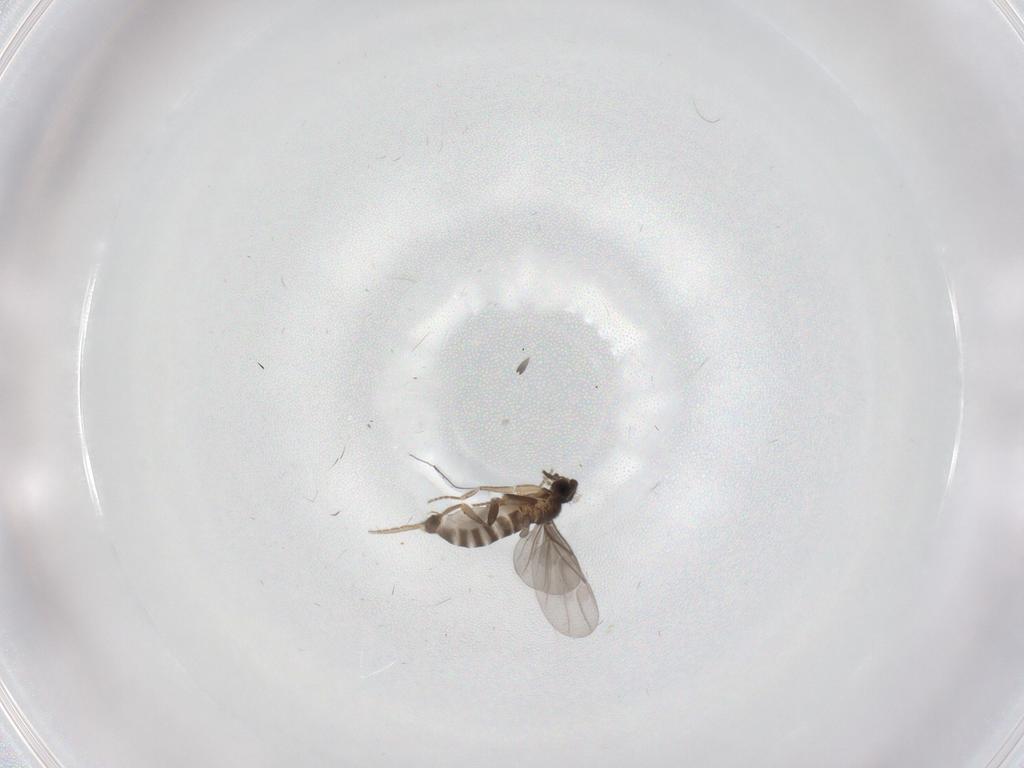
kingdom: Animalia
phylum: Arthropoda
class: Insecta
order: Diptera
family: Ceratopogonidae
